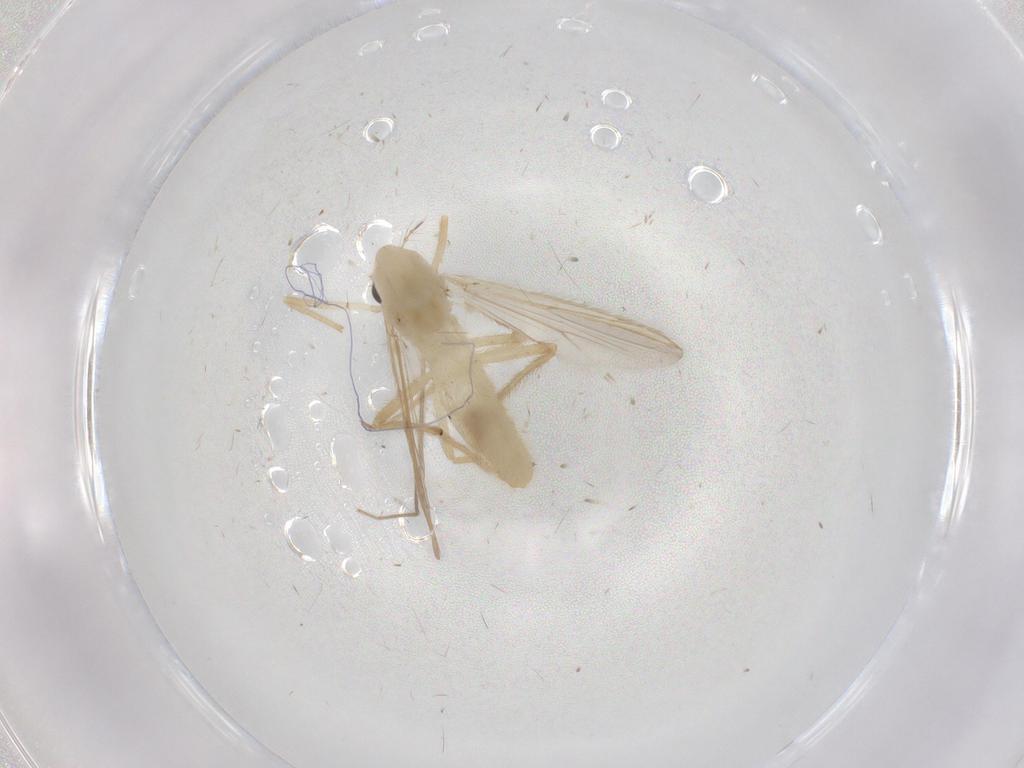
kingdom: Animalia
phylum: Arthropoda
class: Insecta
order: Diptera
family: Chironomidae
